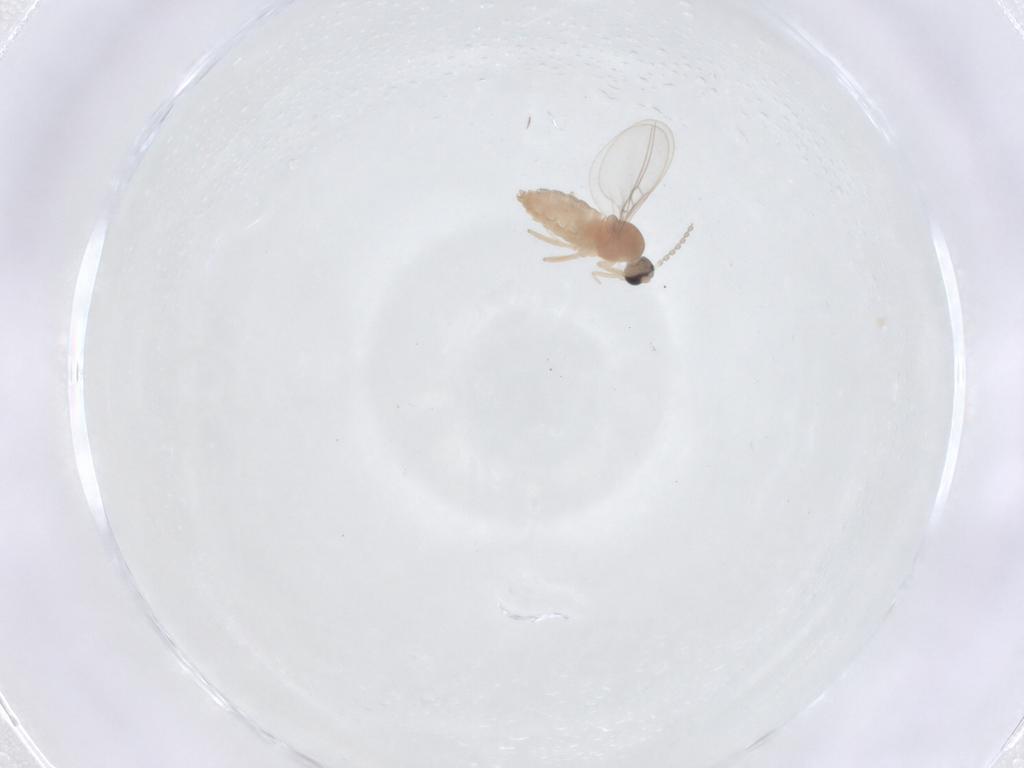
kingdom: Animalia
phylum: Arthropoda
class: Insecta
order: Diptera
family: Cecidomyiidae
